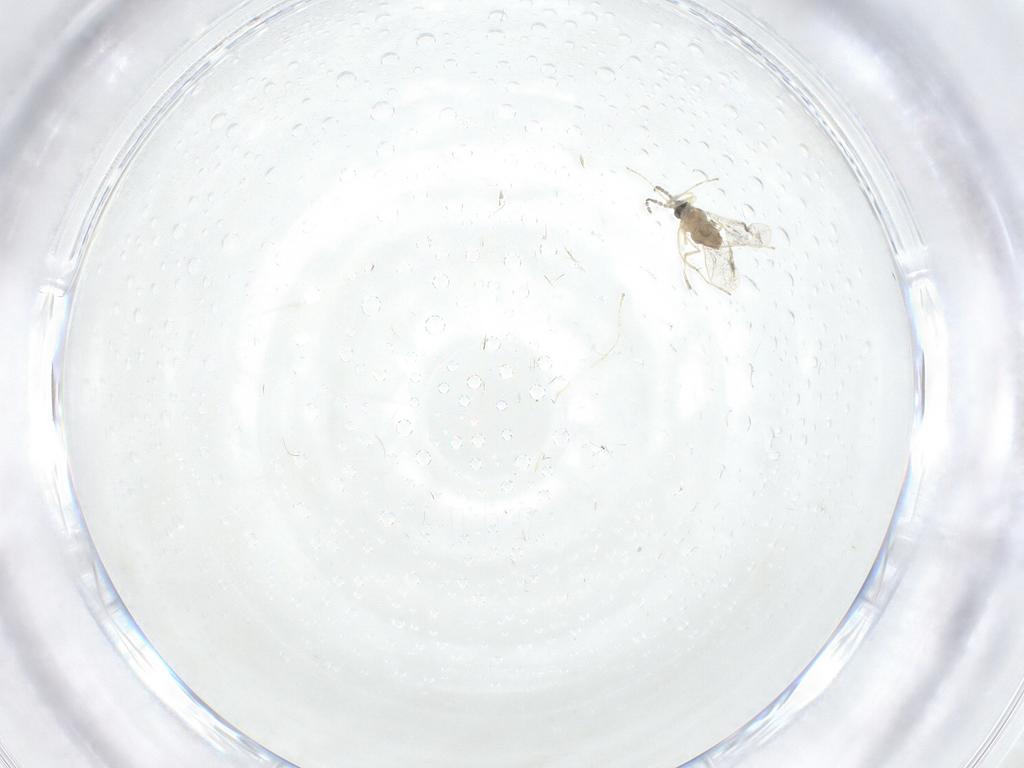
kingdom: Animalia
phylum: Arthropoda
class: Insecta
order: Diptera
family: Cecidomyiidae
